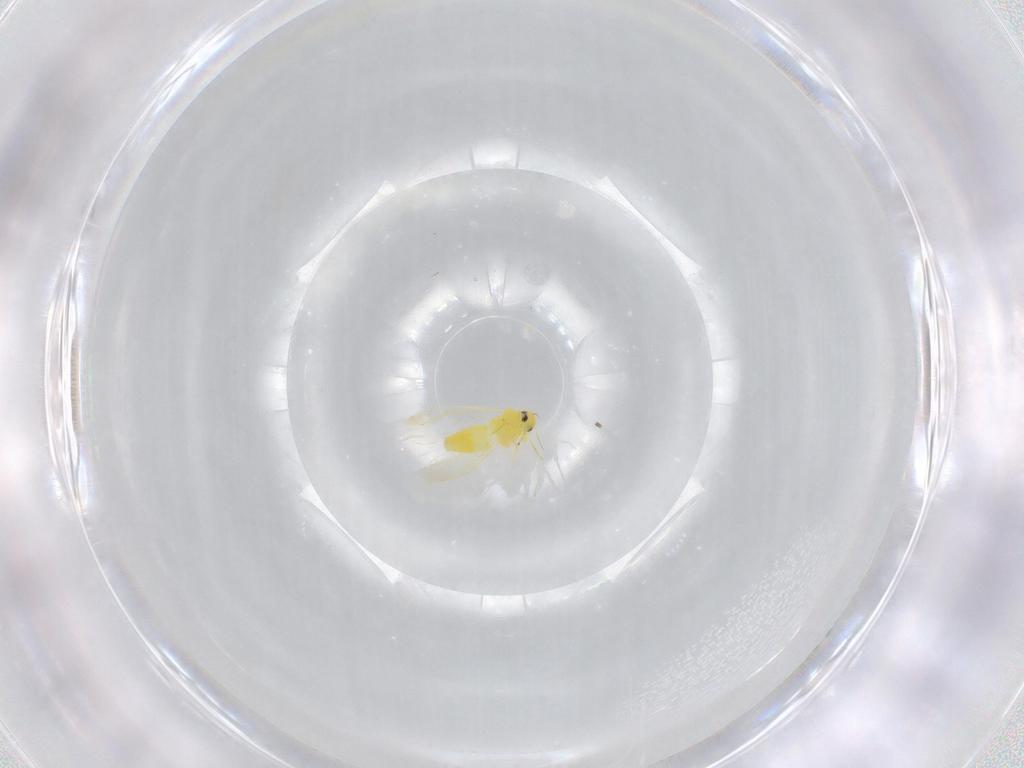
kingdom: Animalia
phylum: Arthropoda
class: Insecta
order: Hemiptera
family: Aleyrodidae
